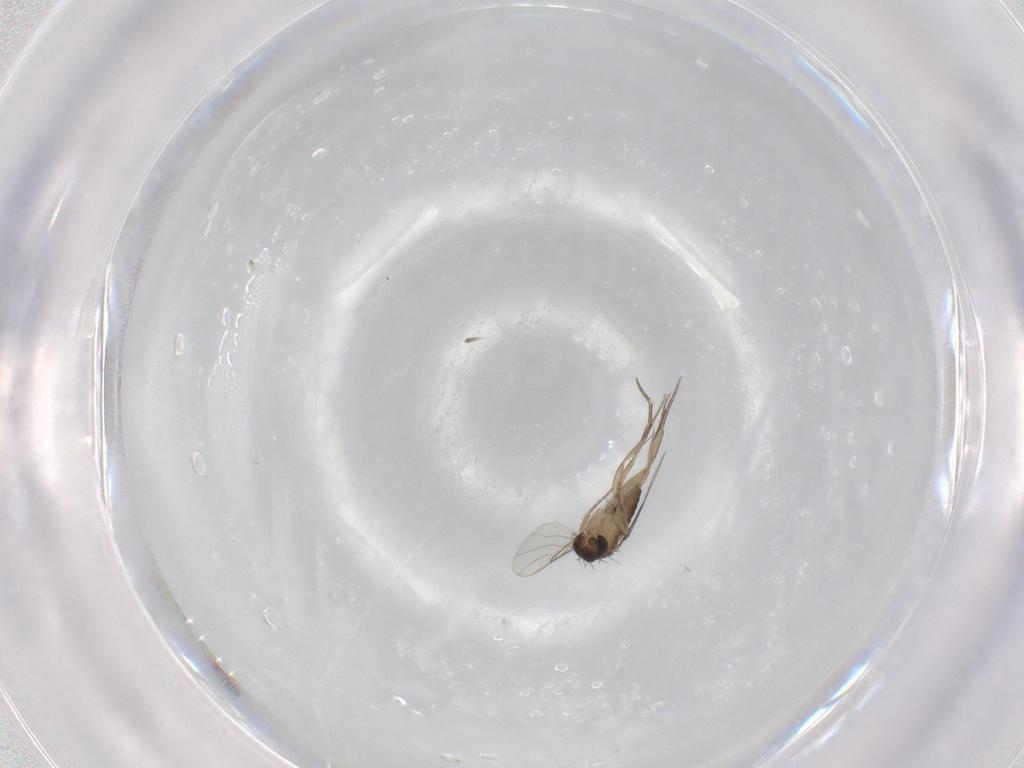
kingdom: Animalia
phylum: Arthropoda
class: Insecta
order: Diptera
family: Phoridae
